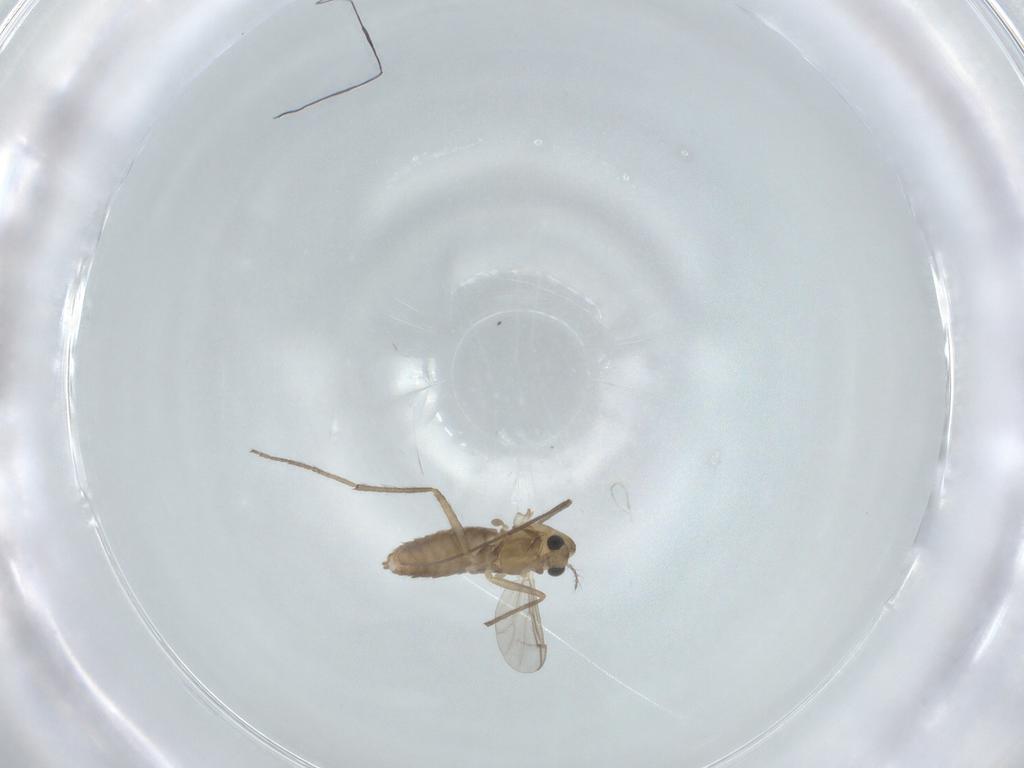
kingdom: Animalia
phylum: Arthropoda
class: Insecta
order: Diptera
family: Chironomidae
